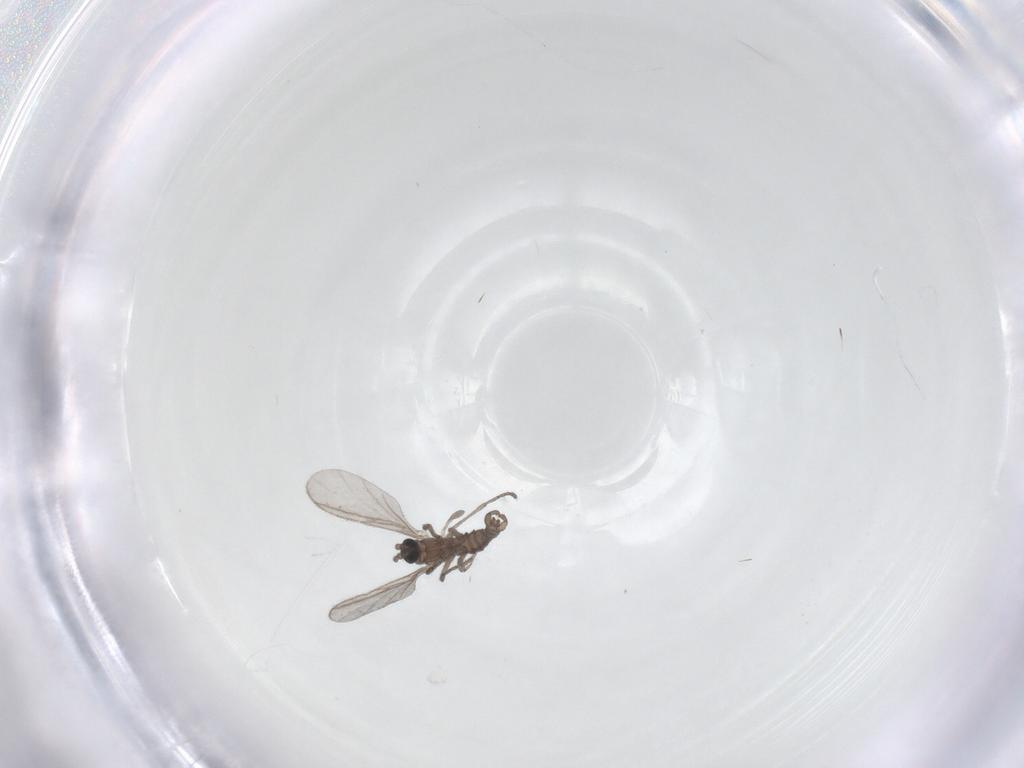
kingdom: Animalia
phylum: Arthropoda
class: Insecta
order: Diptera
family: Sciaridae
